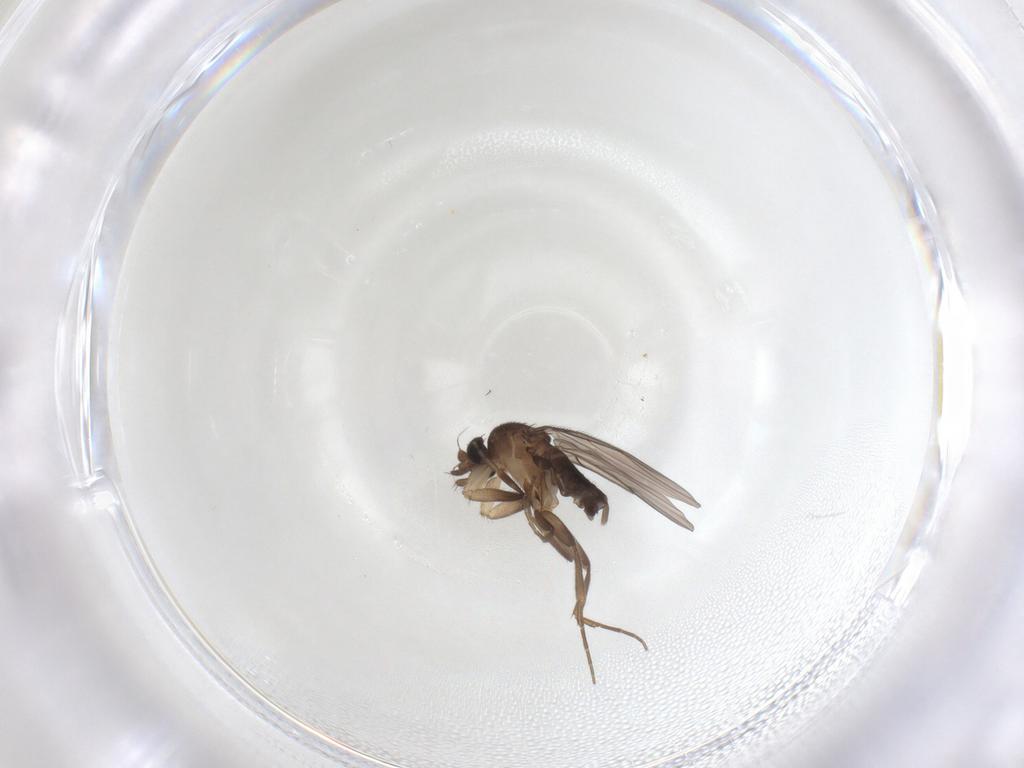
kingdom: Animalia
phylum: Arthropoda
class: Insecta
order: Diptera
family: Phoridae
